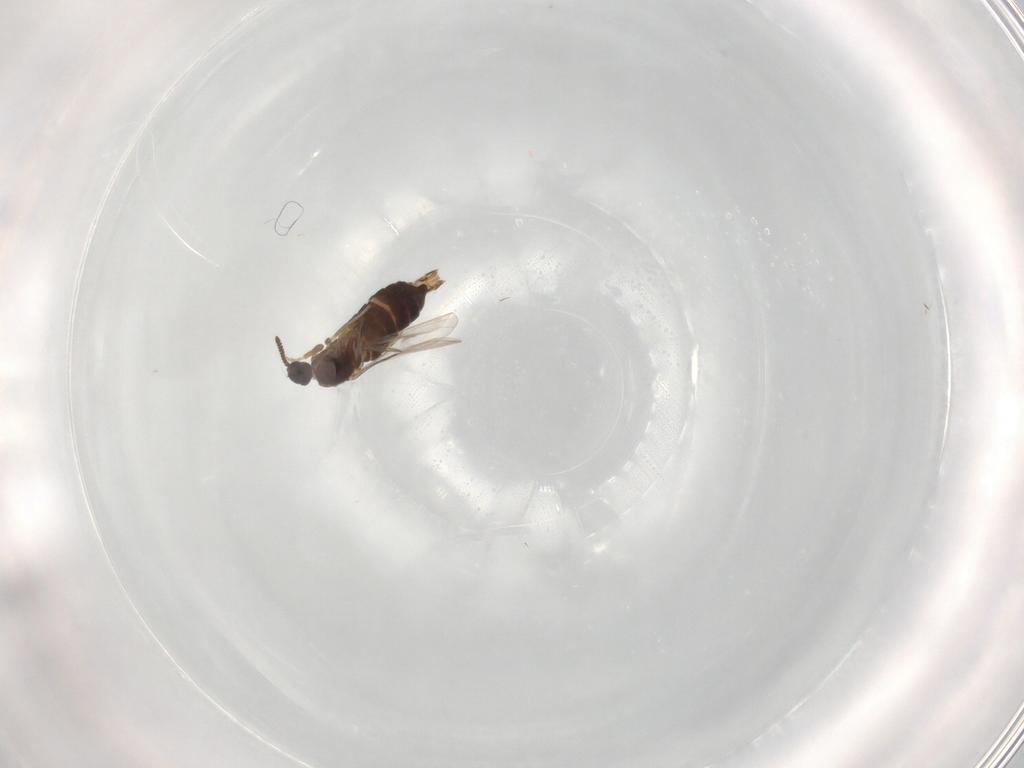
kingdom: Animalia
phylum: Arthropoda
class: Insecta
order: Diptera
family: Scatopsidae
